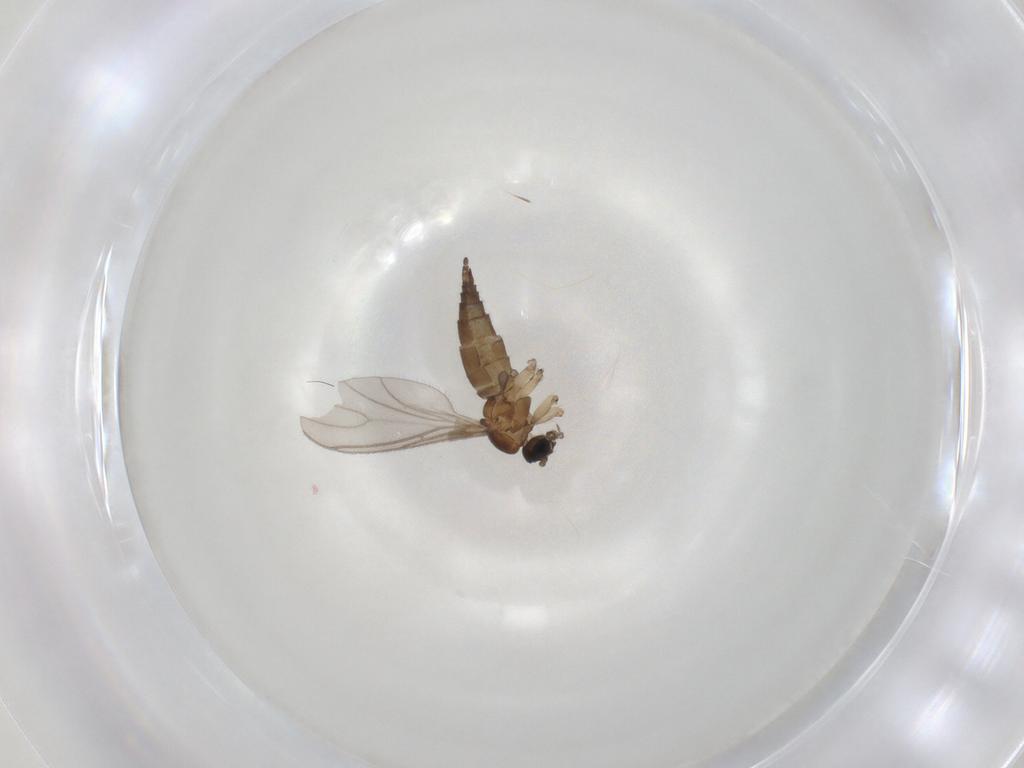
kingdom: Animalia
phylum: Arthropoda
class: Insecta
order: Diptera
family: Sciaridae
